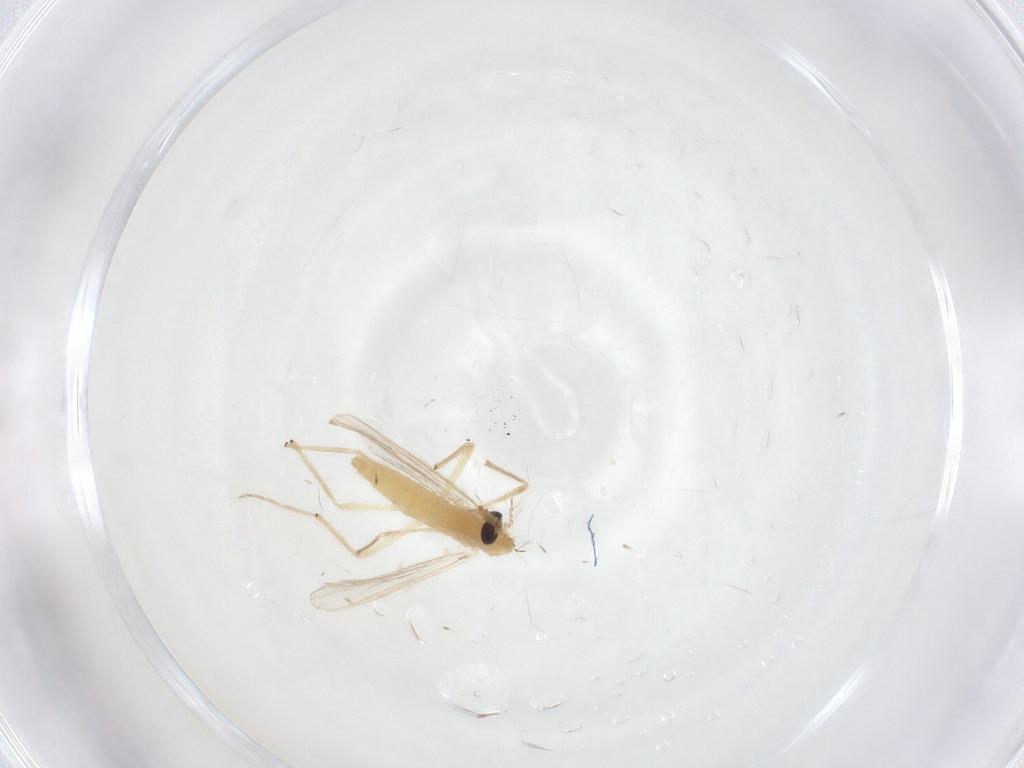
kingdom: Animalia
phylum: Arthropoda
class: Insecta
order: Diptera
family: Chironomidae
